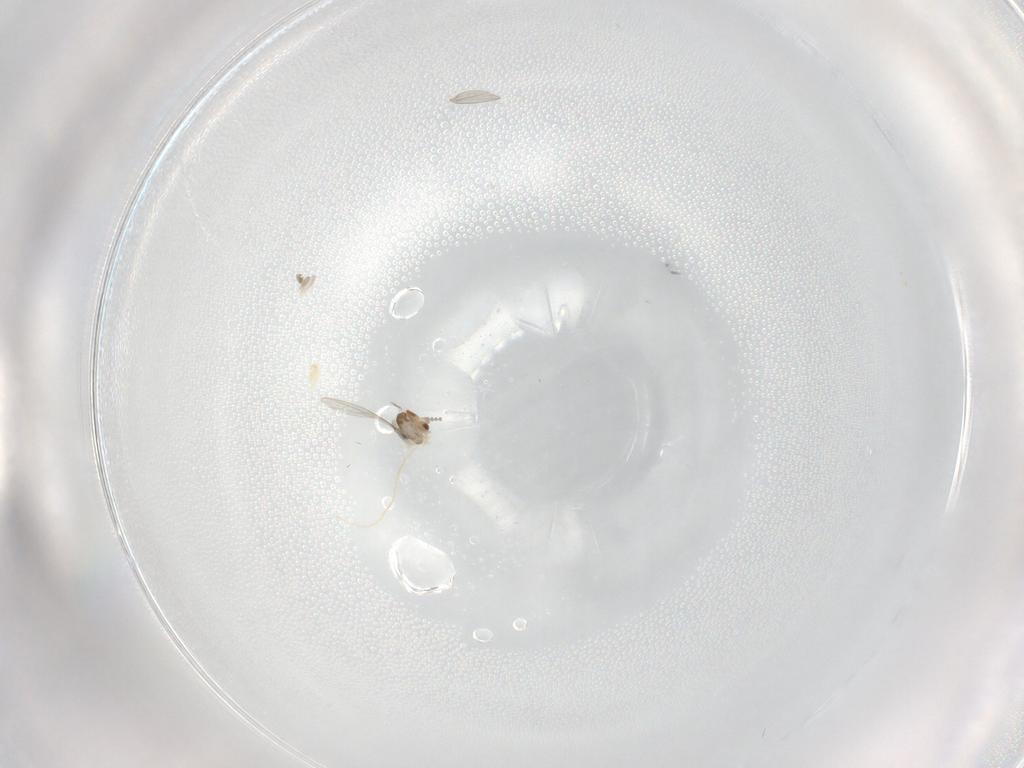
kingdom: Animalia
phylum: Arthropoda
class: Insecta
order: Diptera
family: Cecidomyiidae
